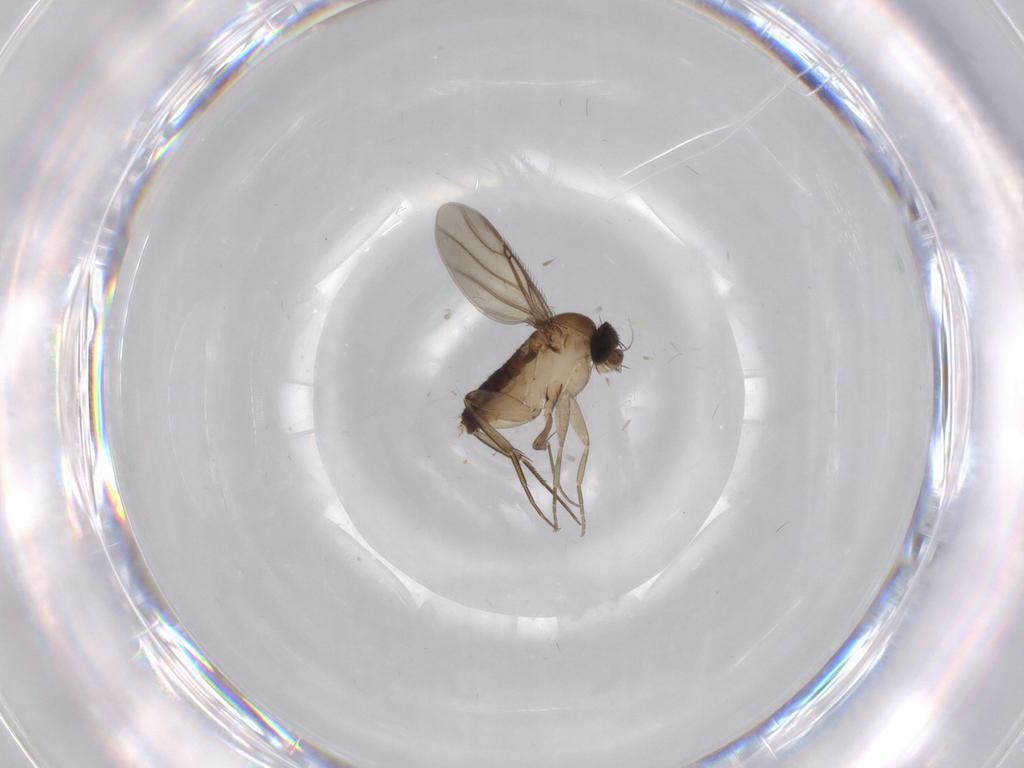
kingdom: Animalia
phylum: Arthropoda
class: Insecta
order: Diptera
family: Phoridae
